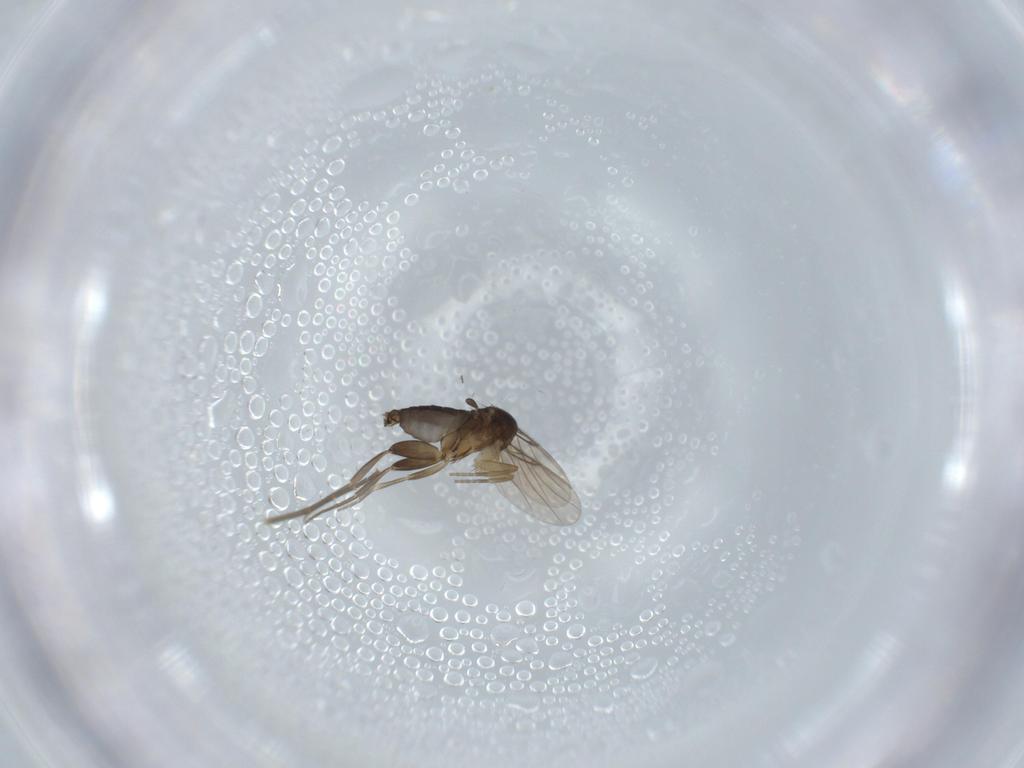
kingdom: Animalia
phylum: Arthropoda
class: Insecta
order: Diptera
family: Phoridae
